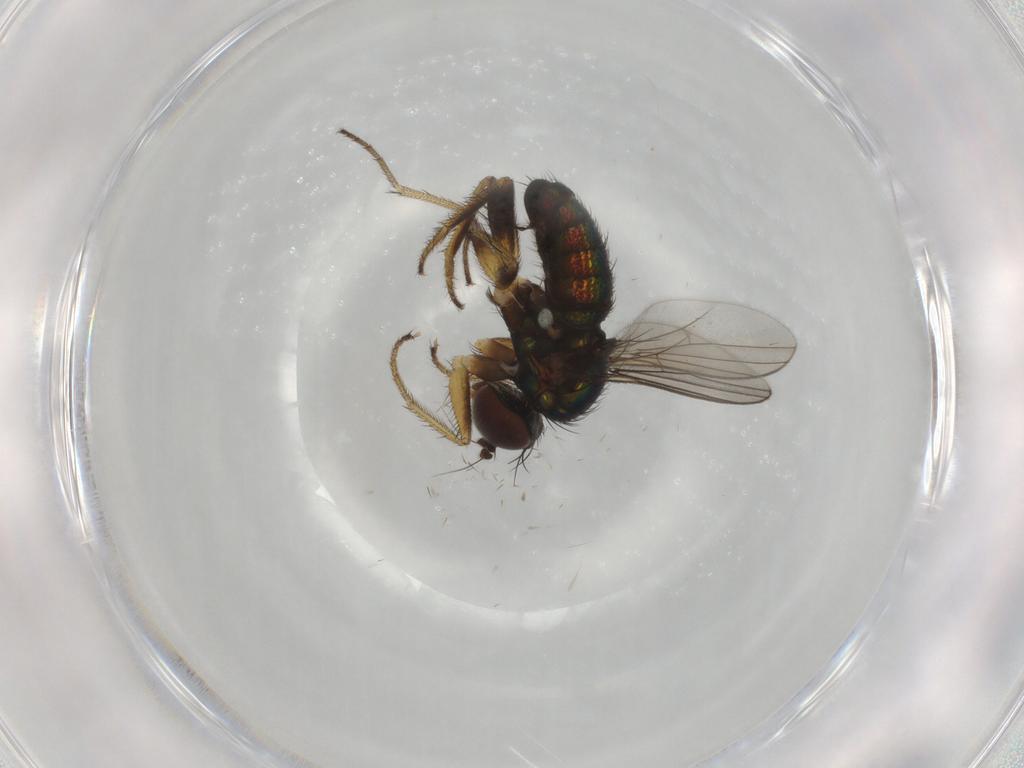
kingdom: Animalia
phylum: Arthropoda
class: Insecta
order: Diptera
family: Dolichopodidae
